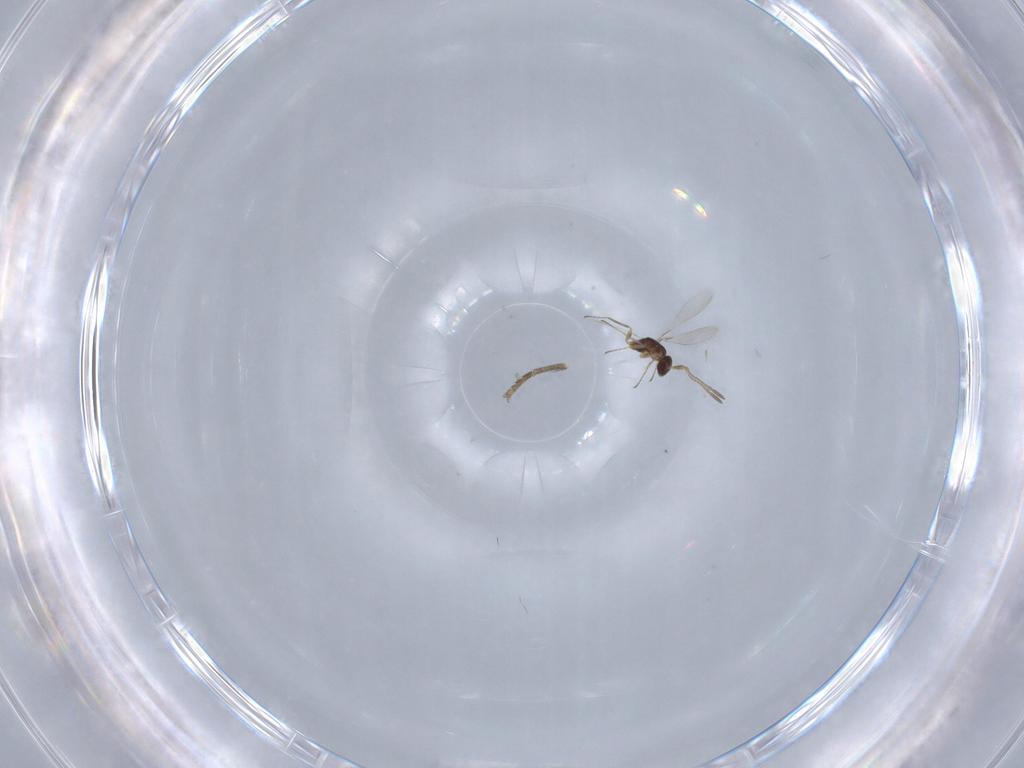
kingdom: Animalia
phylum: Arthropoda
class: Insecta
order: Hymenoptera
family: Mymaridae
